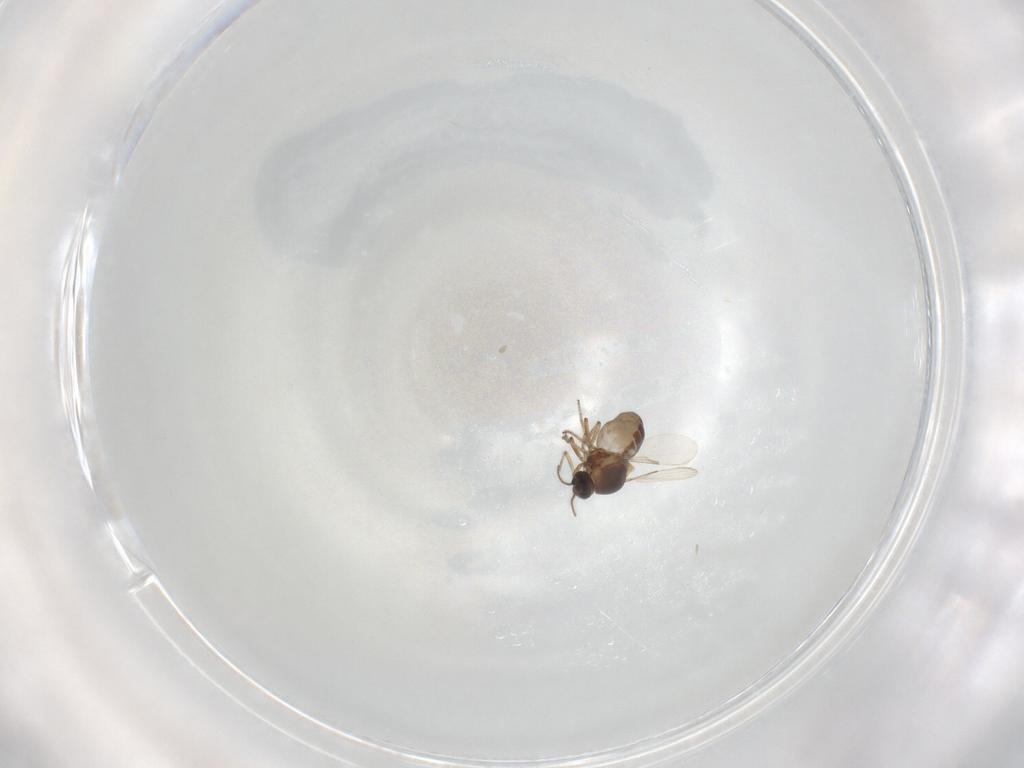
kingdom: Animalia
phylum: Arthropoda
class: Insecta
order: Diptera
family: Ceratopogonidae
